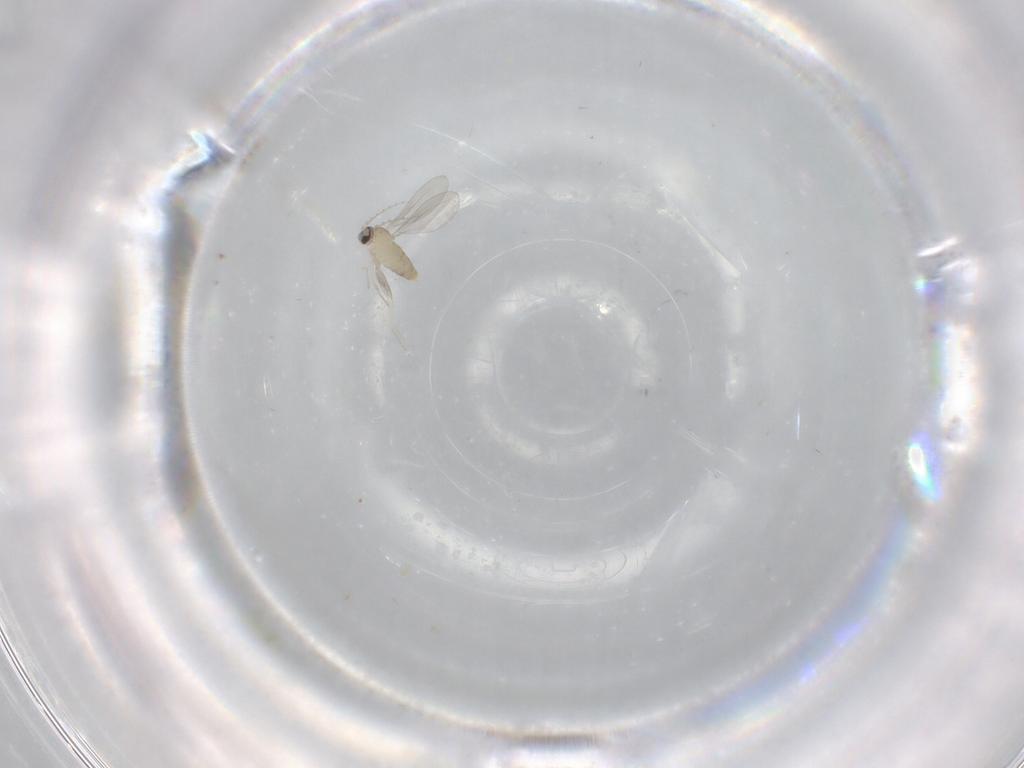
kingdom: Animalia
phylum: Arthropoda
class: Insecta
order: Diptera
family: Cecidomyiidae
